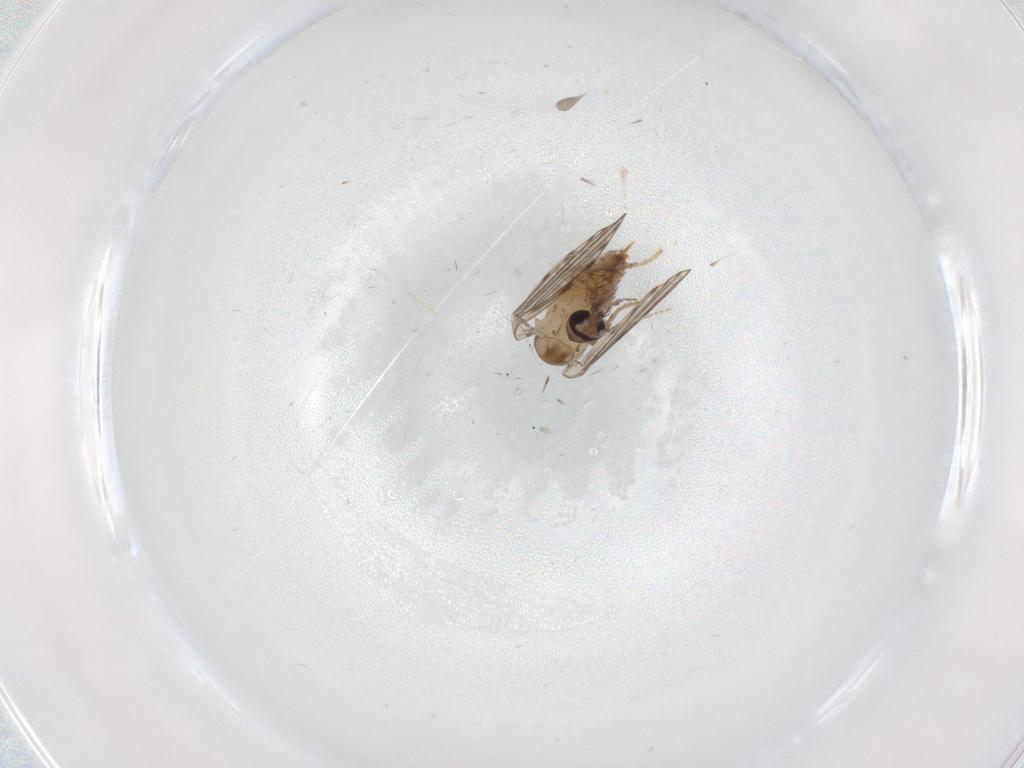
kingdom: Animalia
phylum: Arthropoda
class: Insecta
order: Diptera
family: Psychodidae
